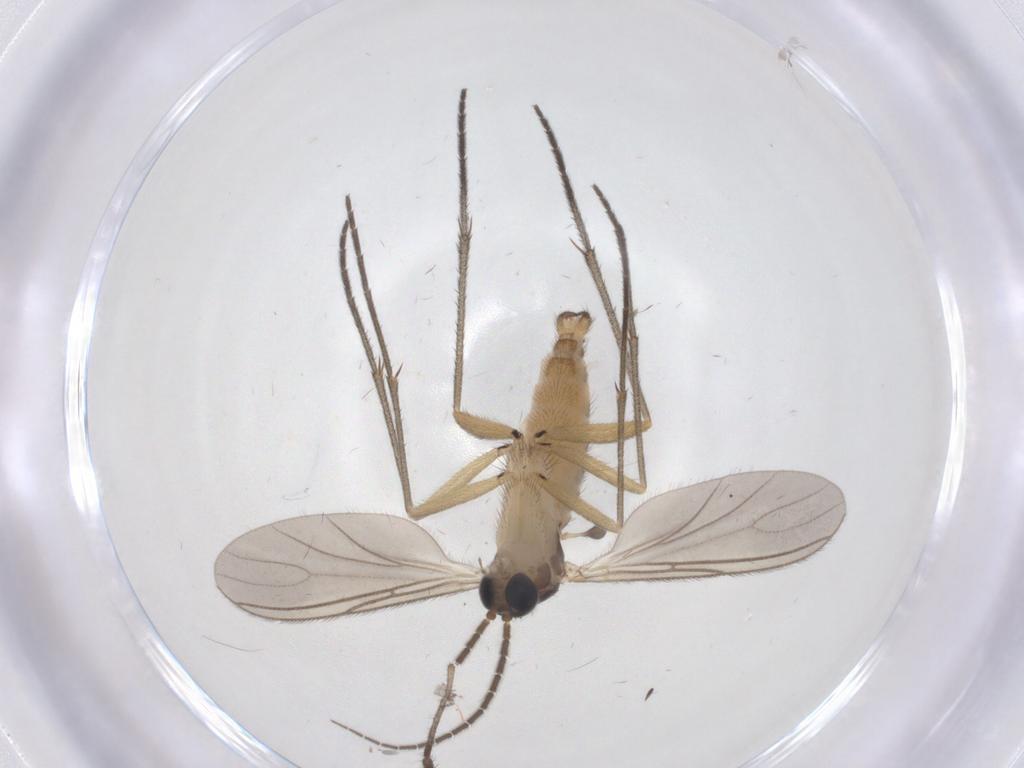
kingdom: Animalia
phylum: Arthropoda
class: Insecta
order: Diptera
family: Sciaridae
